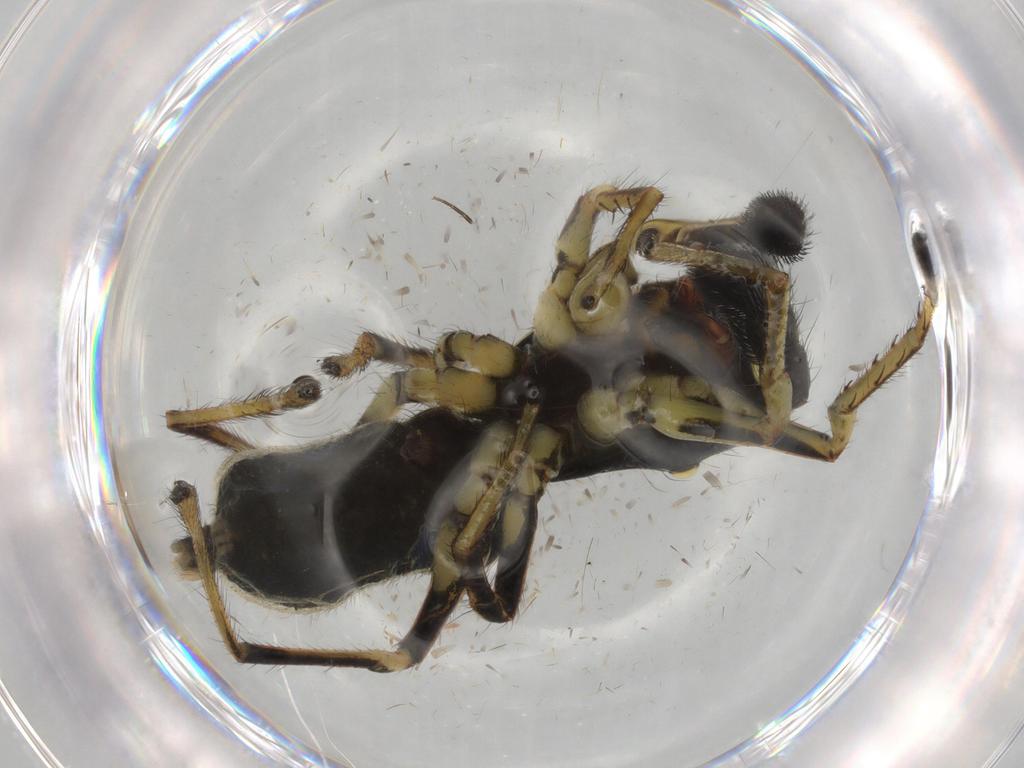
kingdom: Animalia
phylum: Arthropoda
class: Arachnida
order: Araneae
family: Salticidae
